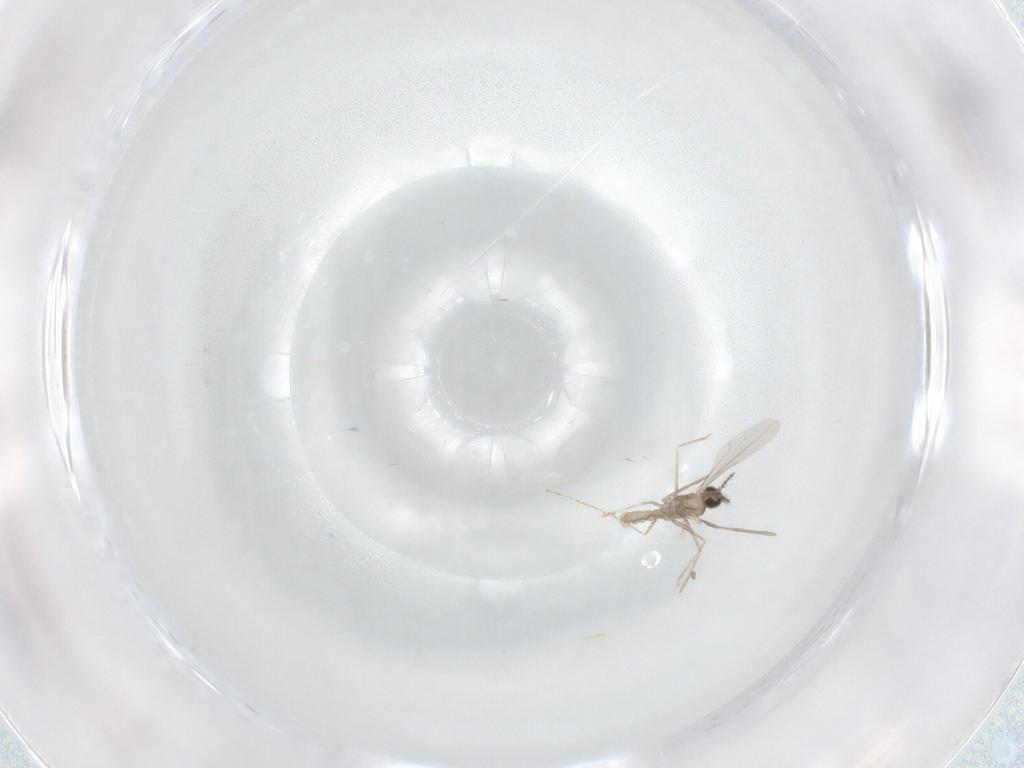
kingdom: Animalia
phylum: Arthropoda
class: Insecta
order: Diptera
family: Cecidomyiidae
